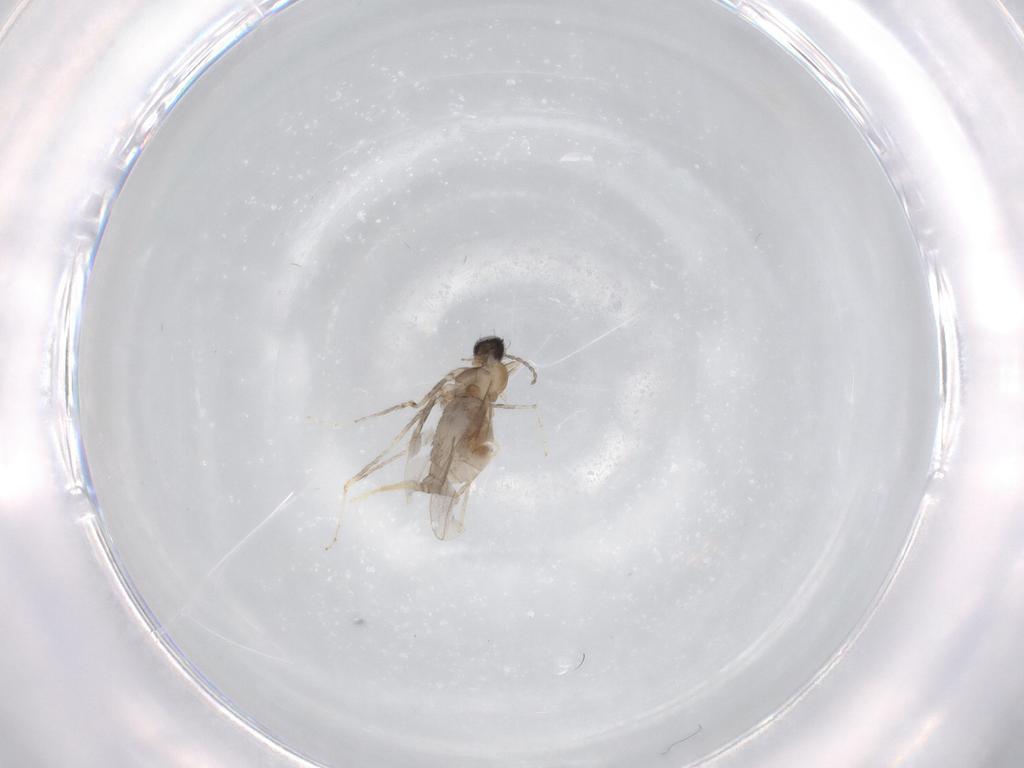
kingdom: Animalia
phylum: Arthropoda
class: Insecta
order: Diptera
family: Cecidomyiidae
